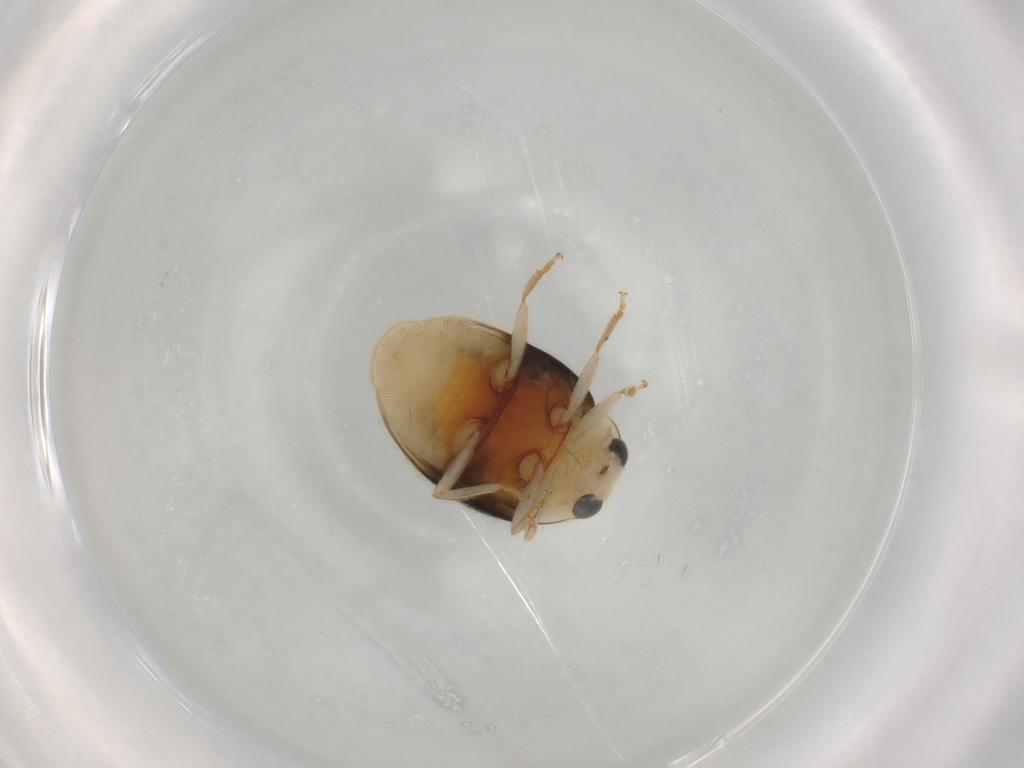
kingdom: Animalia
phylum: Arthropoda
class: Insecta
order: Coleoptera
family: Coccinellidae
